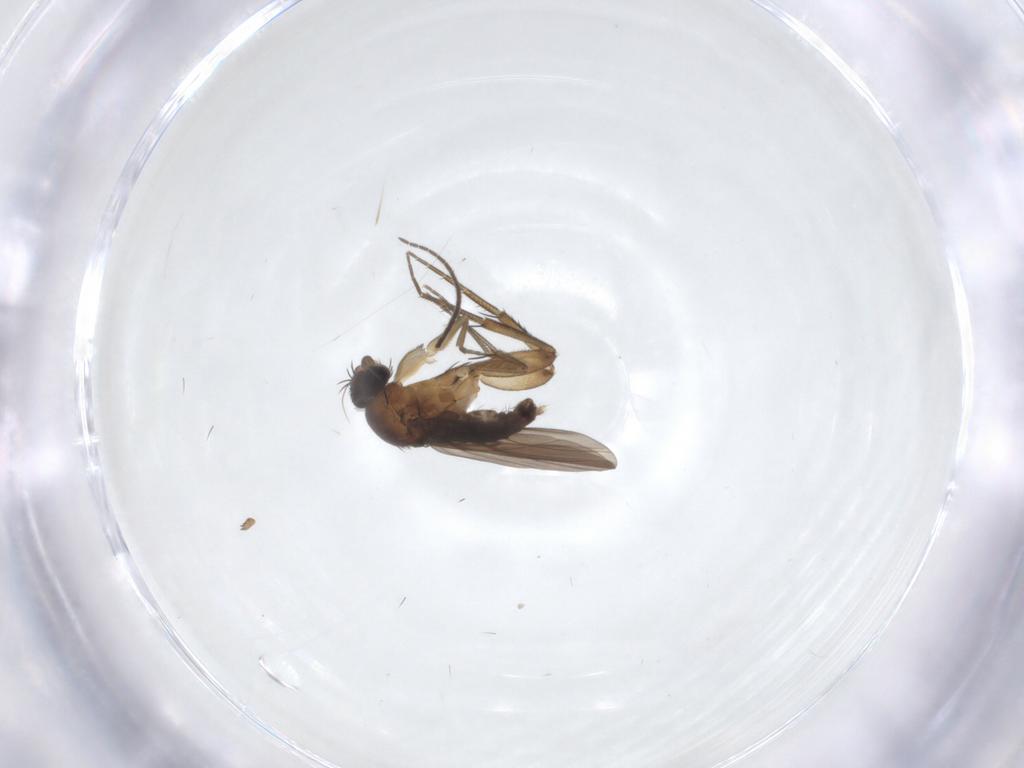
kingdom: Animalia
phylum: Arthropoda
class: Insecta
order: Diptera
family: Phoridae
